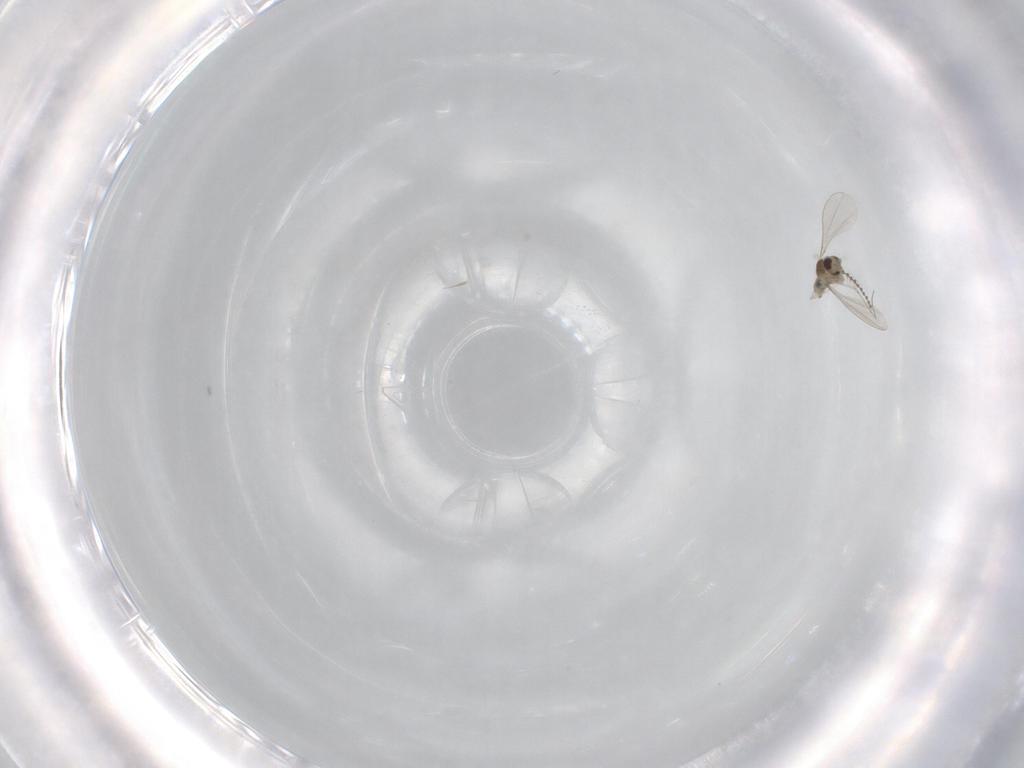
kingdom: Animalia
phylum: Arthropoda
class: Insecta
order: Diptera
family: Cecidomyiidae
